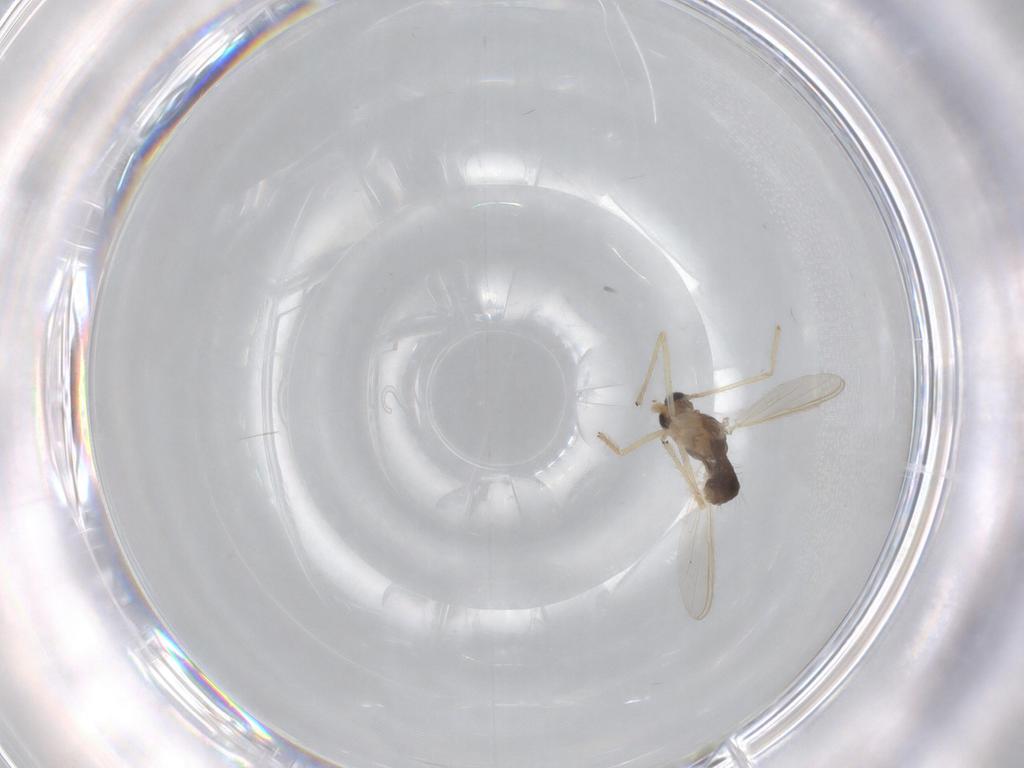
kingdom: Animalia
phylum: Arthropoda
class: Insecta
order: Diptera
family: Cecidomyiidae
